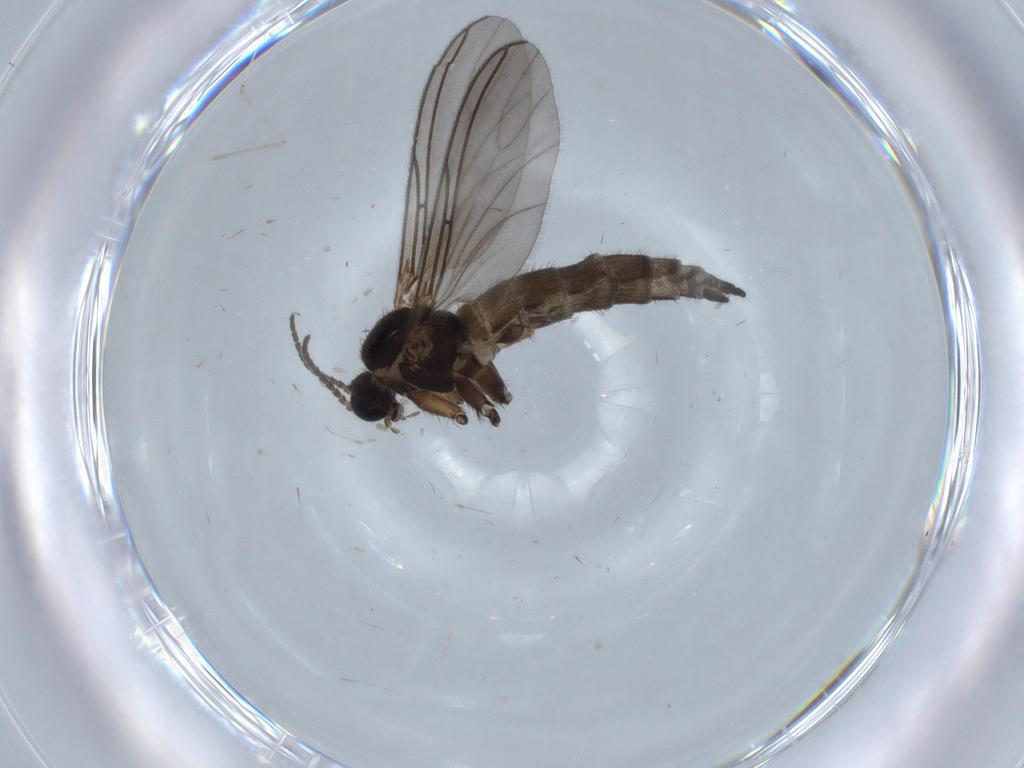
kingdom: Animalia
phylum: Arthropoda
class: Insecta
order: Diptera
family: Sciaridae
